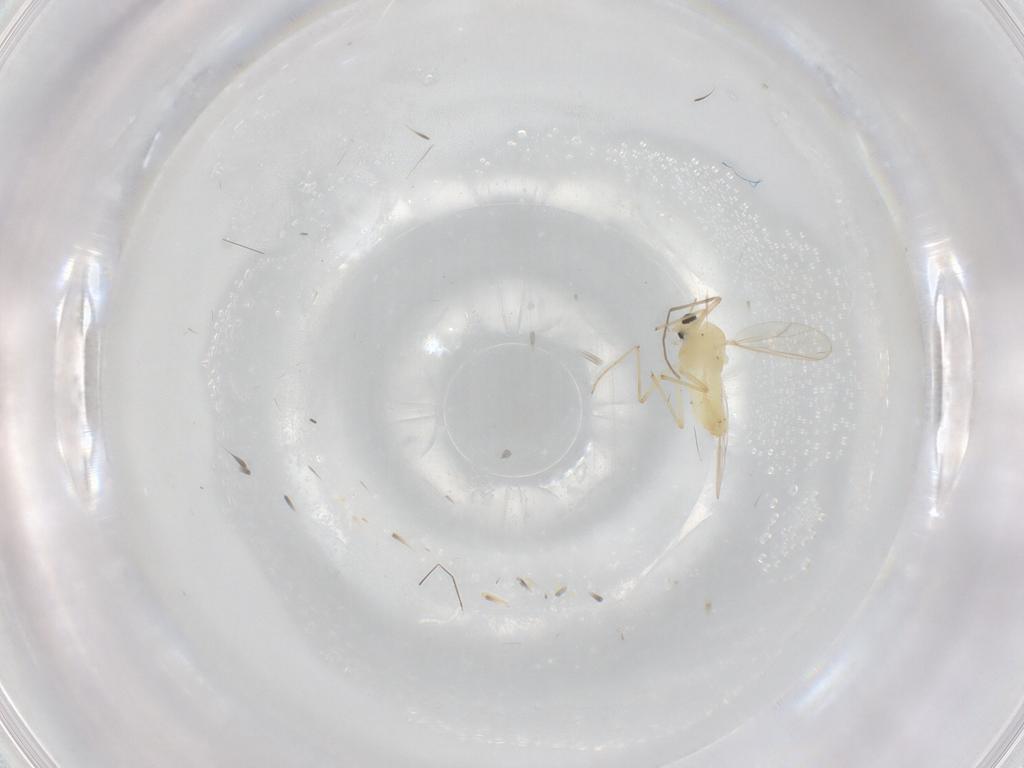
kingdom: Animalia
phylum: Arthropoda
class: Insecta
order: Diptera
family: Chironomidae
